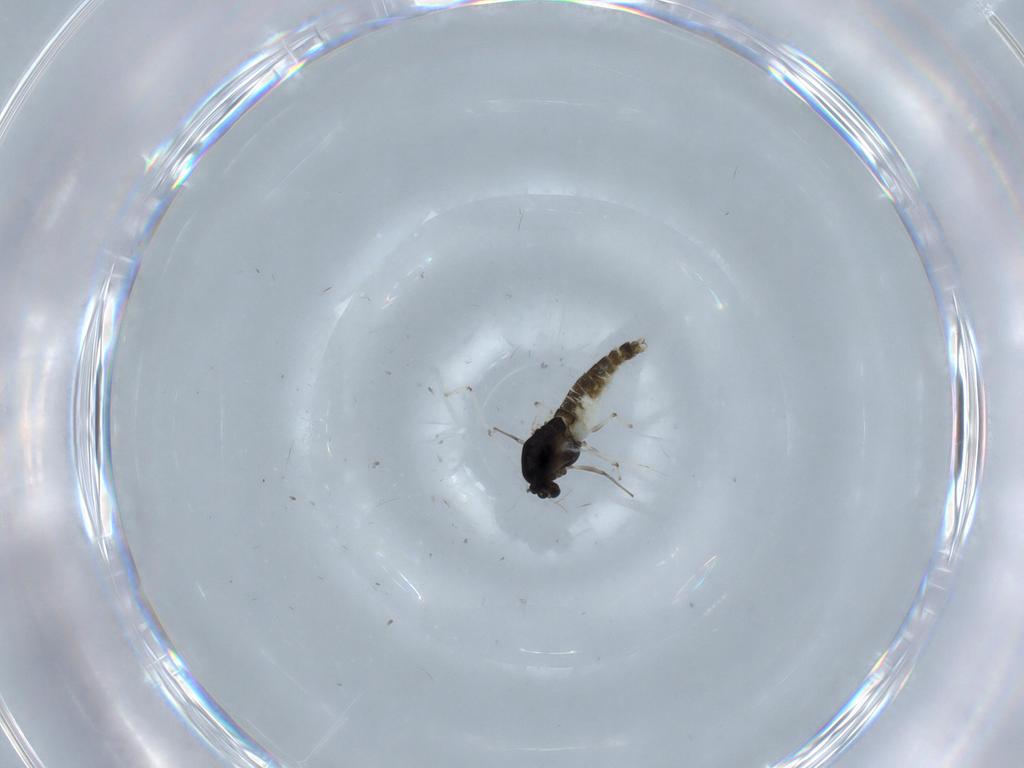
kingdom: Animalia
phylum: Arthropoda
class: Insecta
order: Diptera
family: Chironomidae
